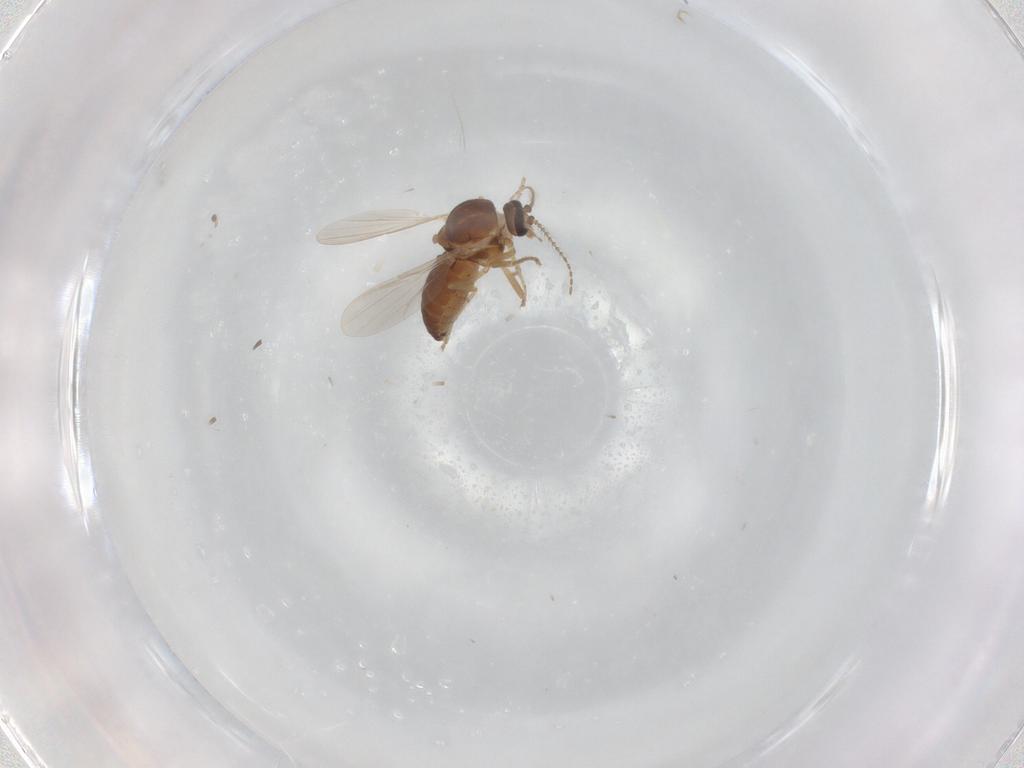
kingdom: Animalia
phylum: Arthropoda
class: Insecta
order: Diptera
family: Ceratopogonidae
